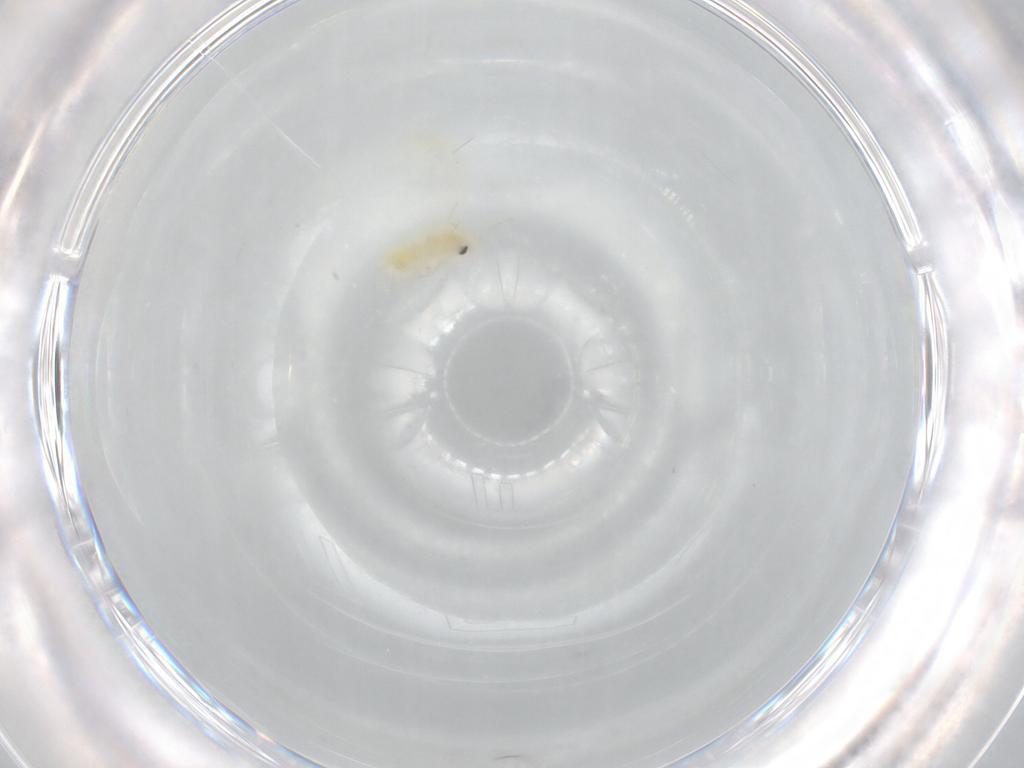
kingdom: Animalia
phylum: Arthropoda
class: Insecta
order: Hemiptera
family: Aleyrodidae
